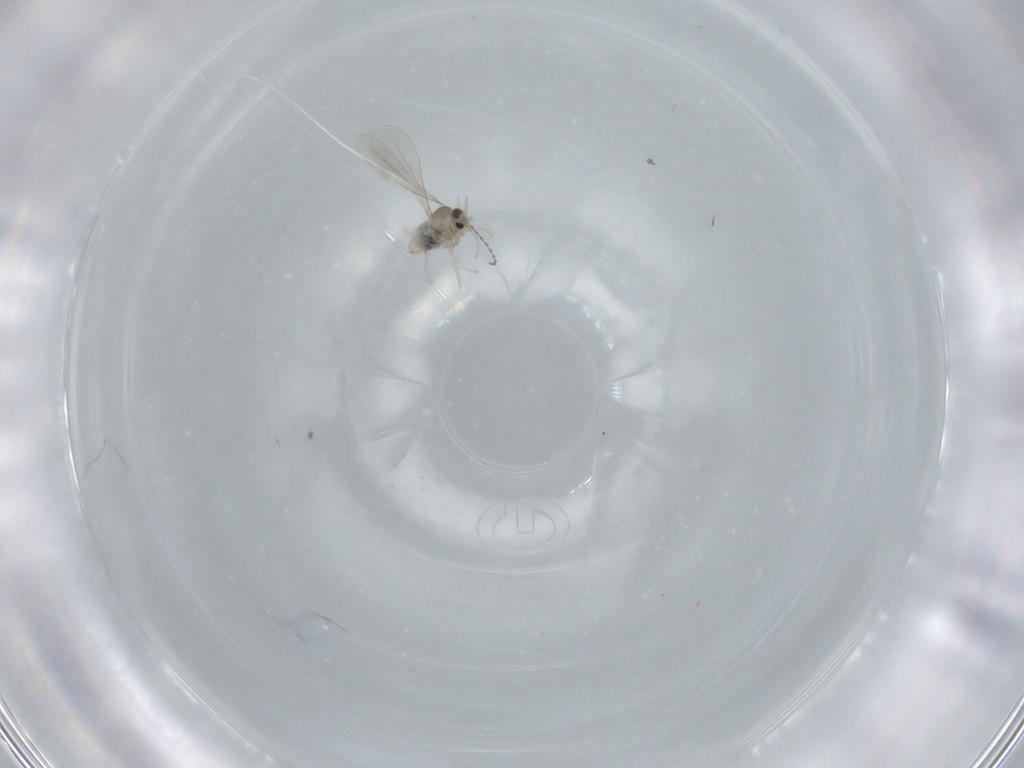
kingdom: Animalia
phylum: Arthropoda
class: Insecta
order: Diptera
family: Cecidomyiidae
